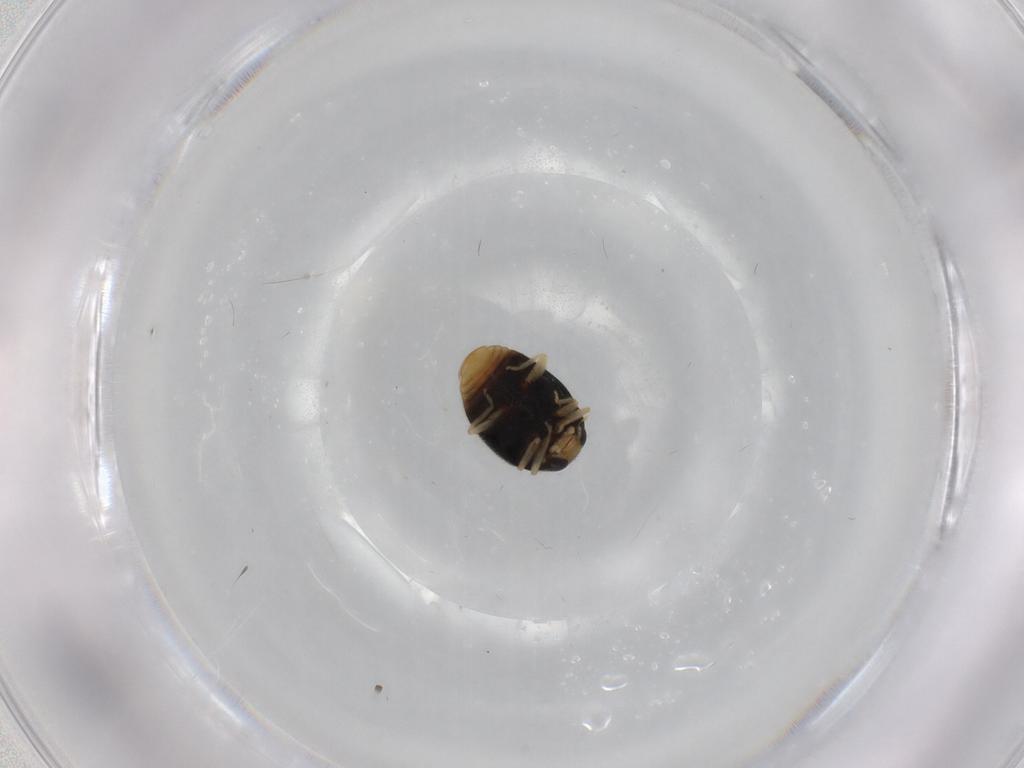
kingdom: Animalia
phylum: Arthropoda
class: Insecta
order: Coleoptera
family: Coccinellidae
